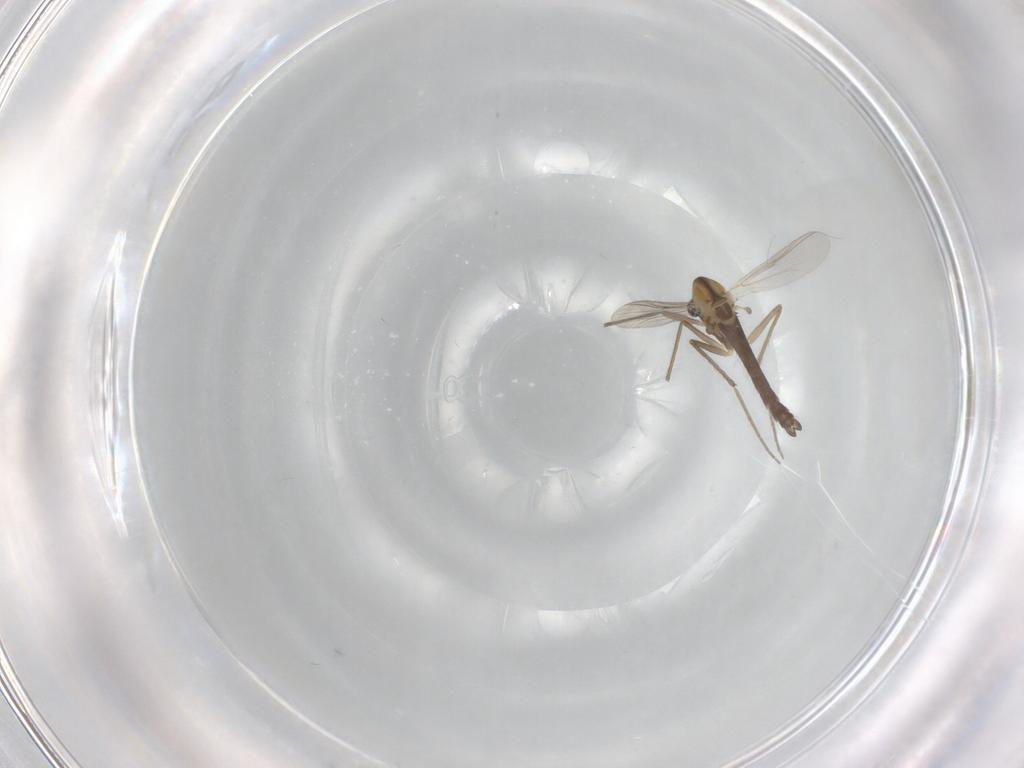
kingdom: Animalia
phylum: Arthropoda
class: Insecta
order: Diptera
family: Chironomidae
